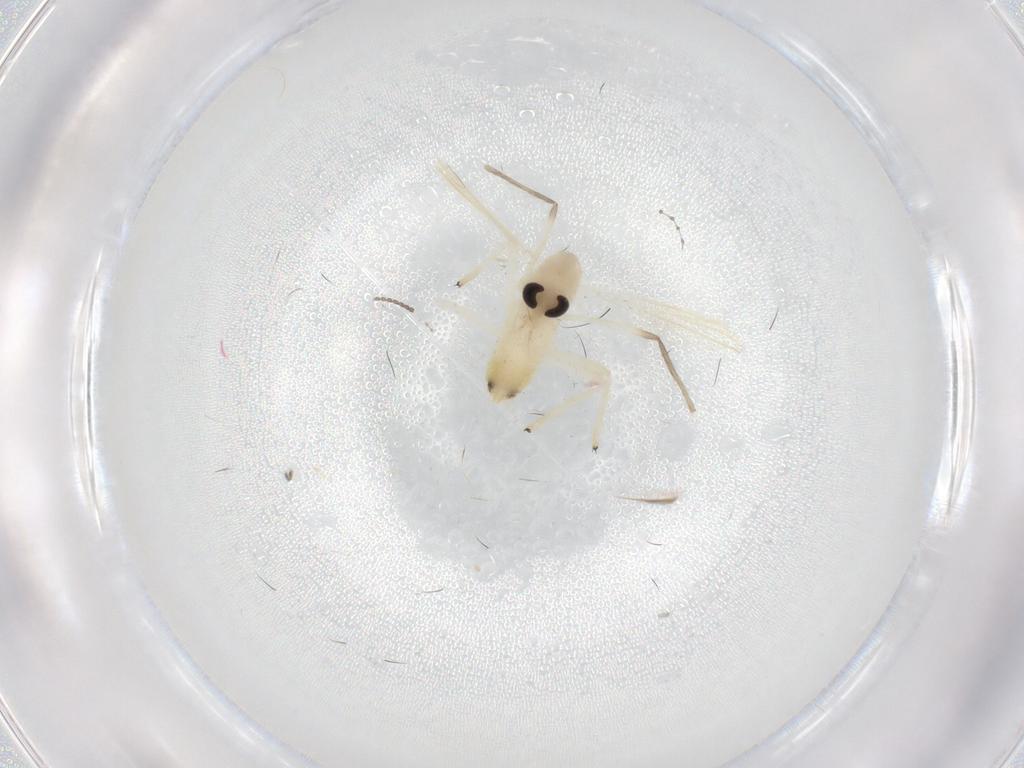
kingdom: Animalia
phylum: Arthropoda
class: Insecta
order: Diptera
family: Chironomidae
